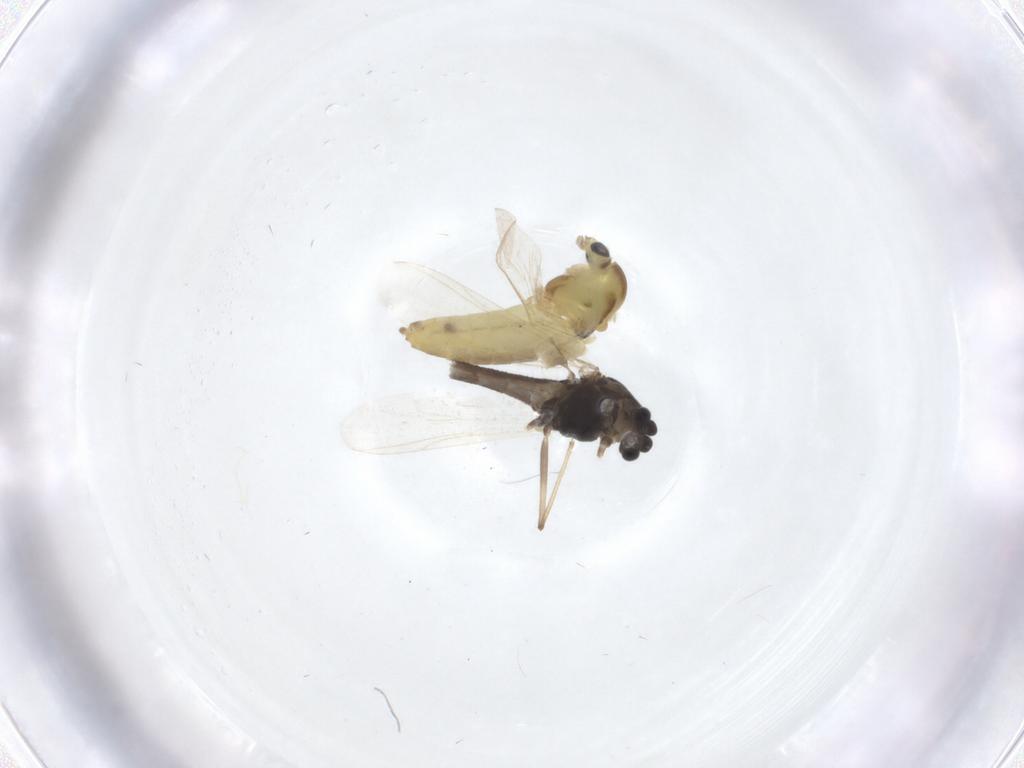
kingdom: Animalia
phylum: Arthropoda
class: Insecta
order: Diptera
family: Chironomidae
